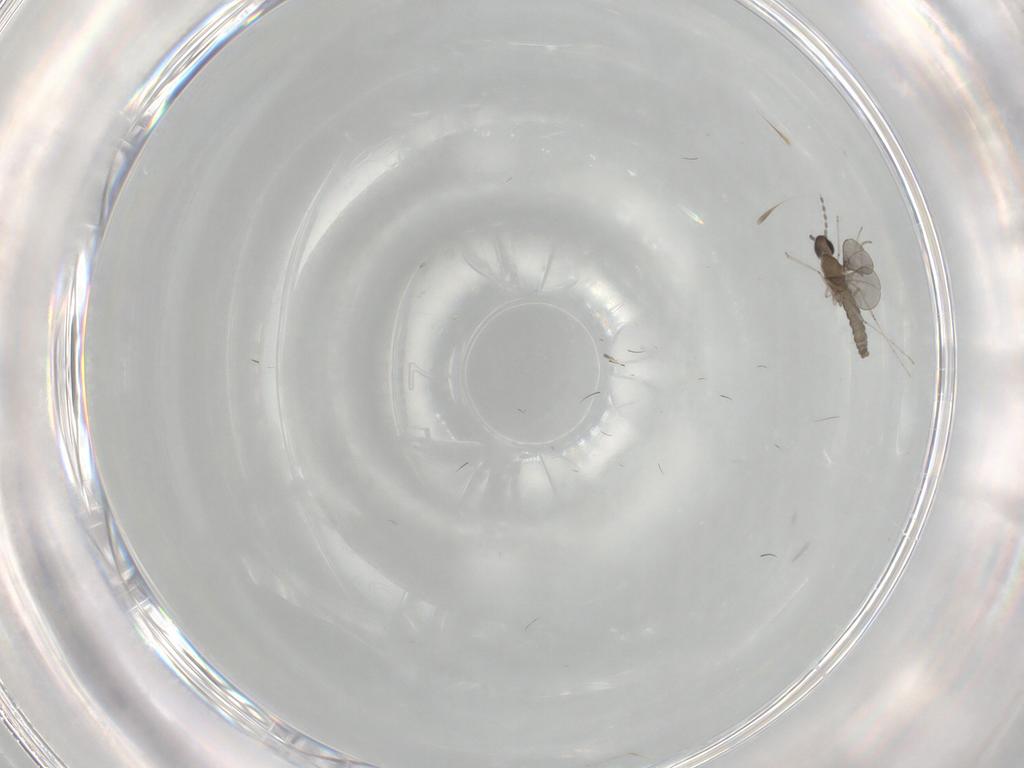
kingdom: Animalia
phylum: Arthropoda
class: Insecta
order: Diptera
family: Cecidomyiidae
